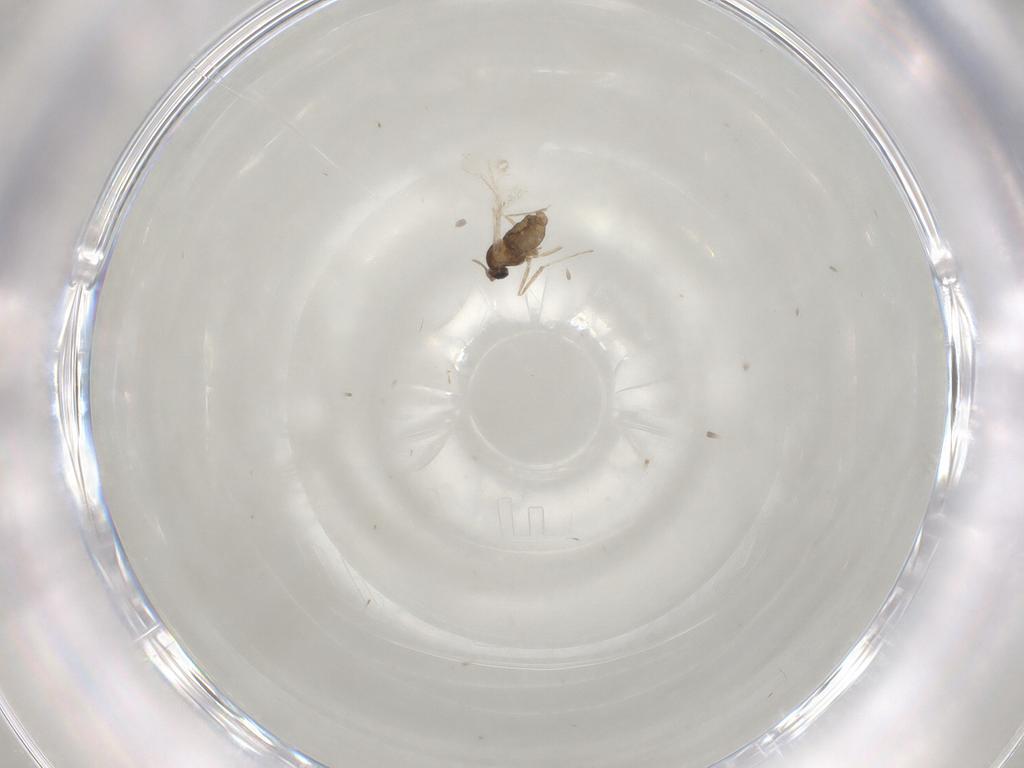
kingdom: Animalia
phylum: Arthropoda
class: Insecta
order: Diptera
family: Cecidomyiidae
